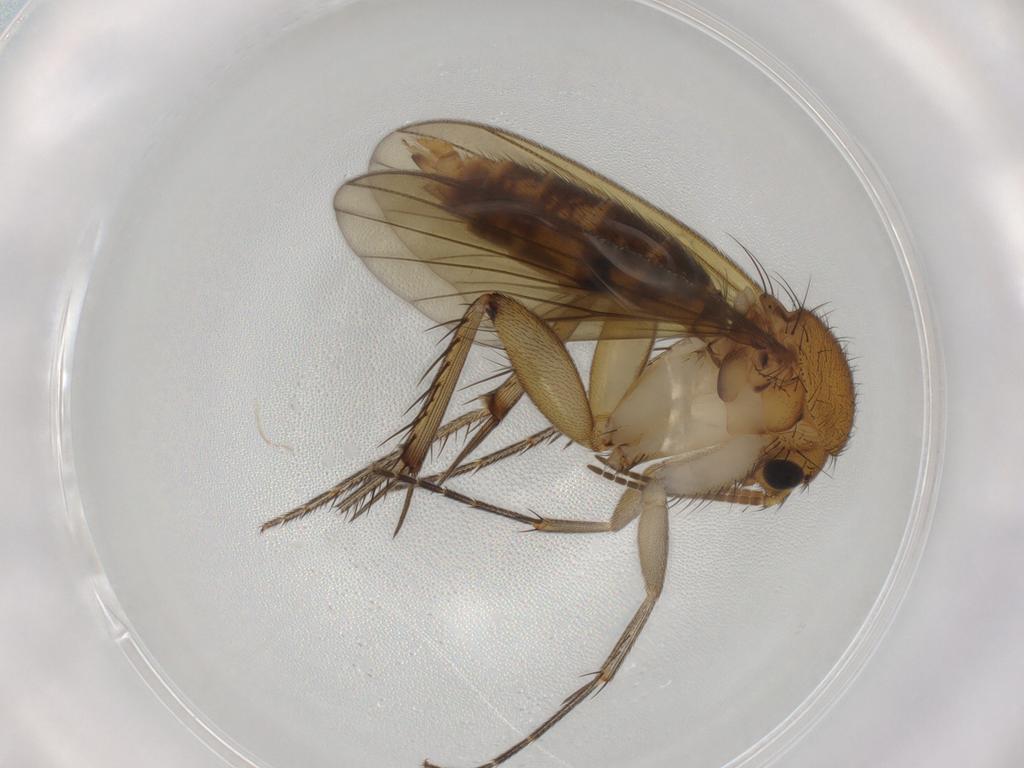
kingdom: Animalia
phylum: Arthropoda
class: Insecta
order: Diptera
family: Mycetophilidae
